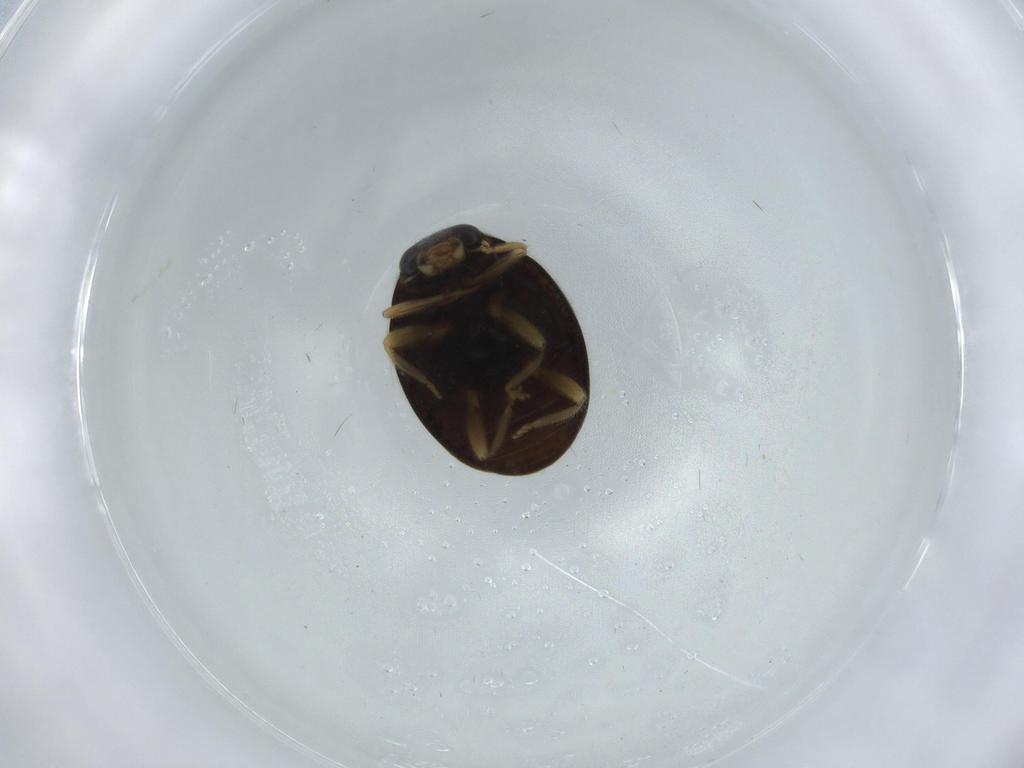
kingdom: Animalia
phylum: Arthropoda
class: Insecta
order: Coleoptera
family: Coccinellidae
